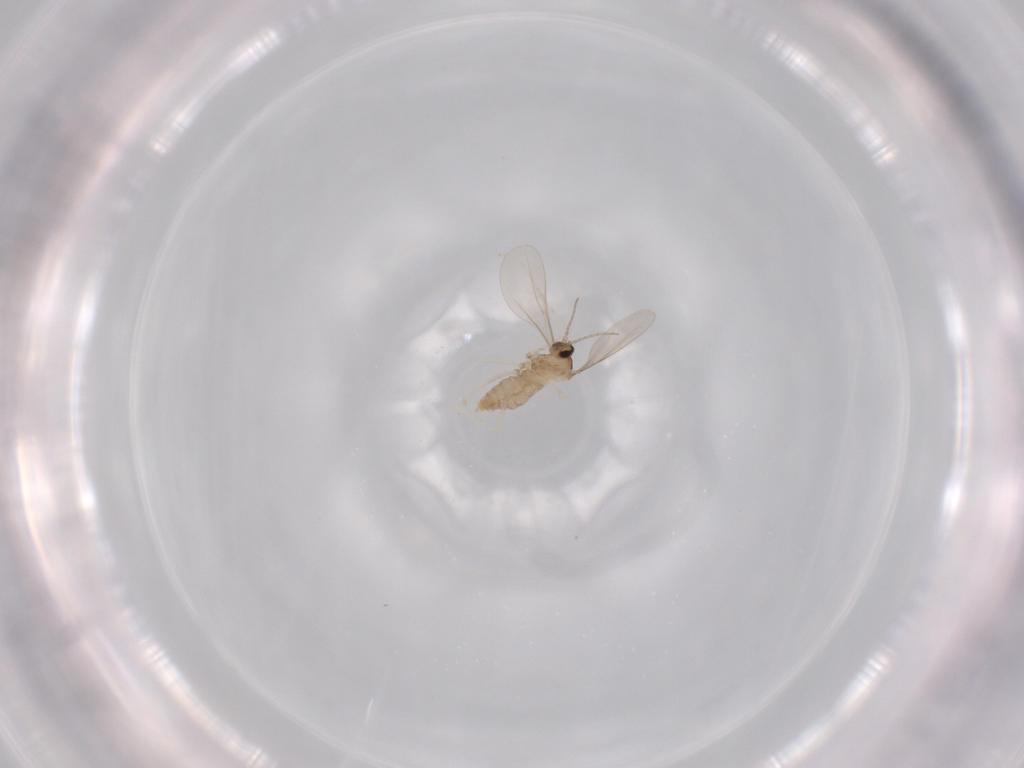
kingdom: Animalia
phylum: Arthropoda
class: Insecta
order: Diptera
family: Cecidomyiidae
